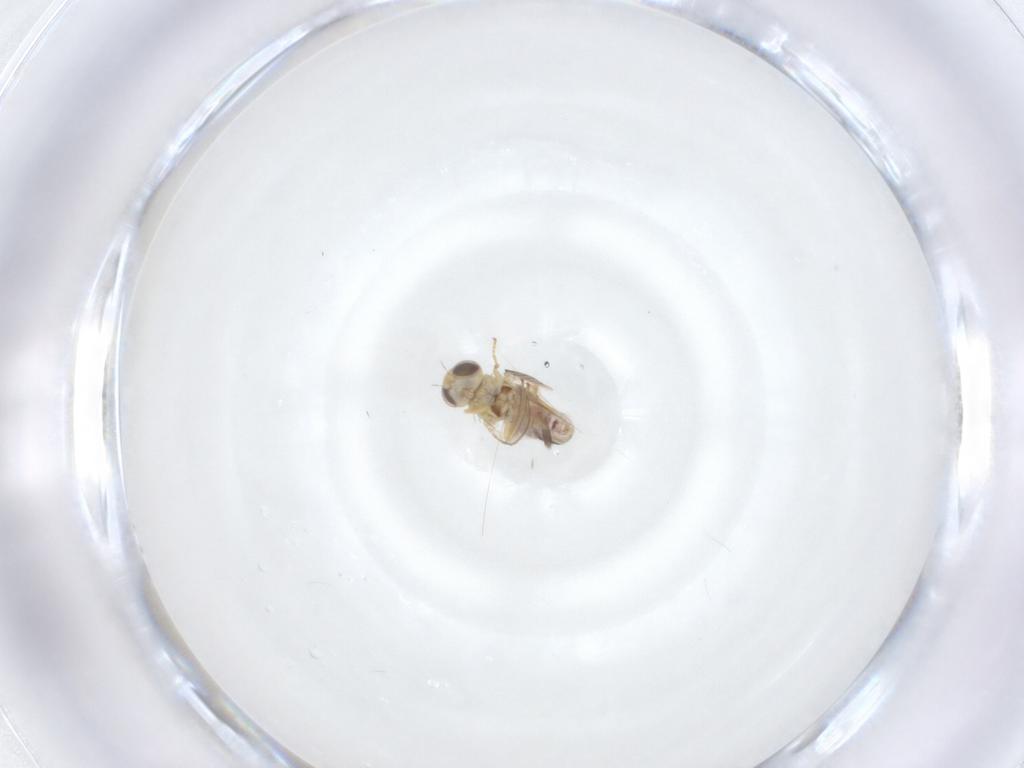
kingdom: Animalia
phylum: Arthropoda
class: Insecta
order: Diptera
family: Chyromyidae
